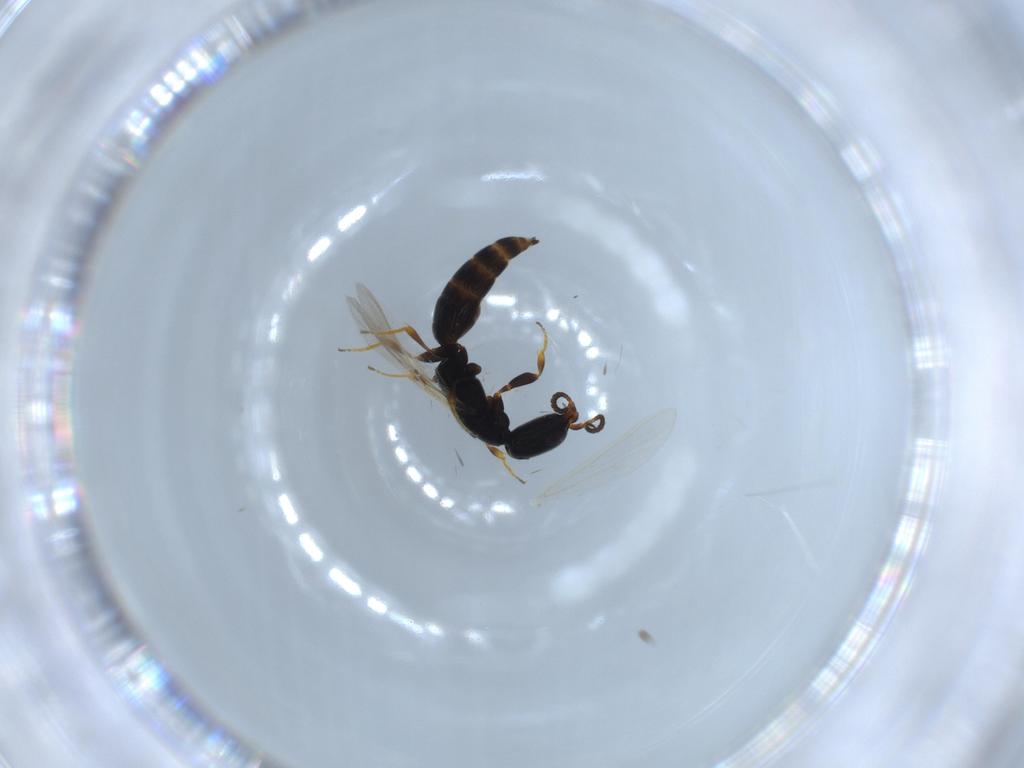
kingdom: Animalia
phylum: Arthropoda
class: Insecta
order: Hymenoptera
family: Bethylidae
